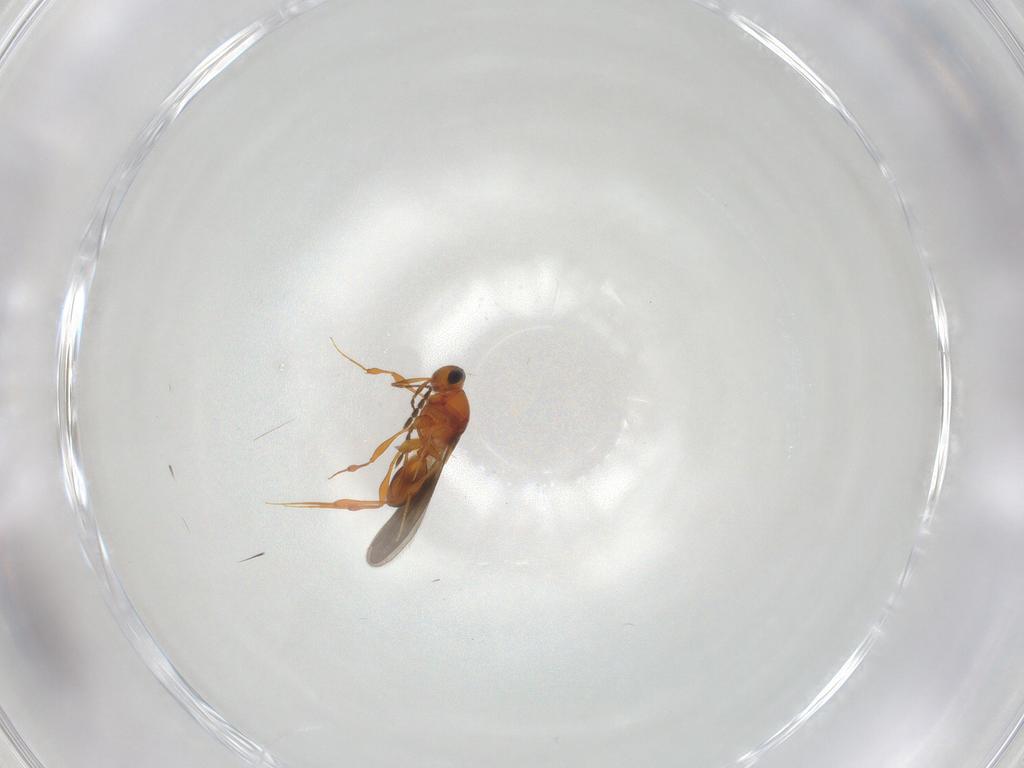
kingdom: Animalia
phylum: Arthropoda
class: Insecta
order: Hymenoptera
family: Platygastridae
